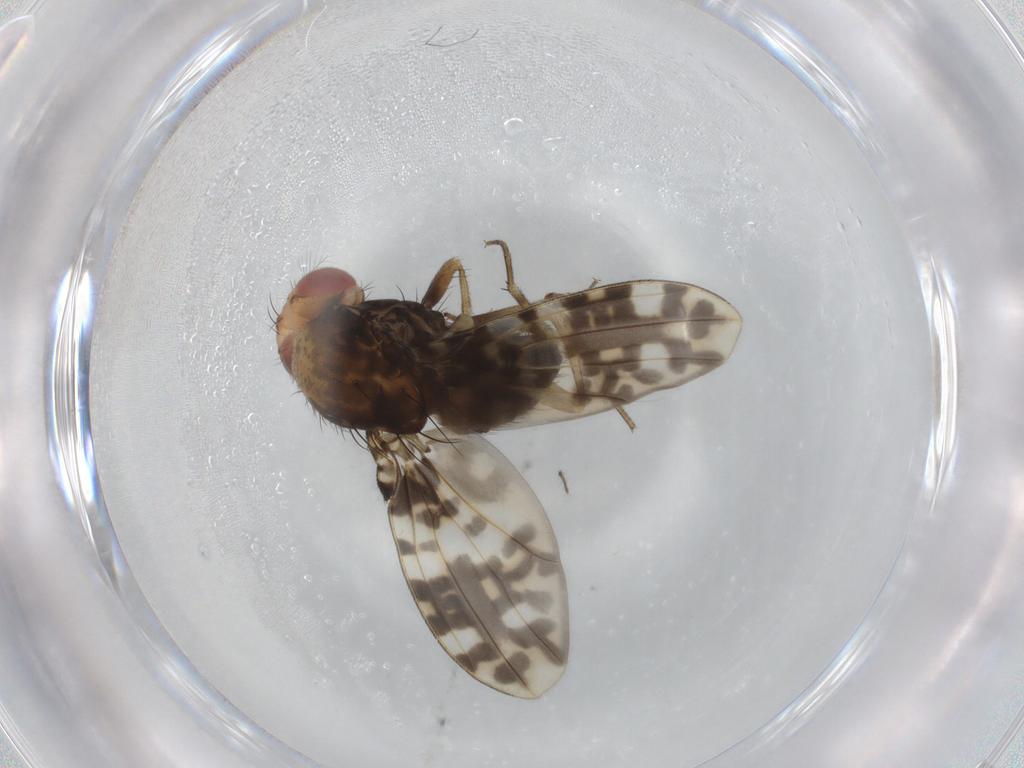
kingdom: Animalia
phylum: Arthropoda
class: Insecta
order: Diptera
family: Drosophilidae
